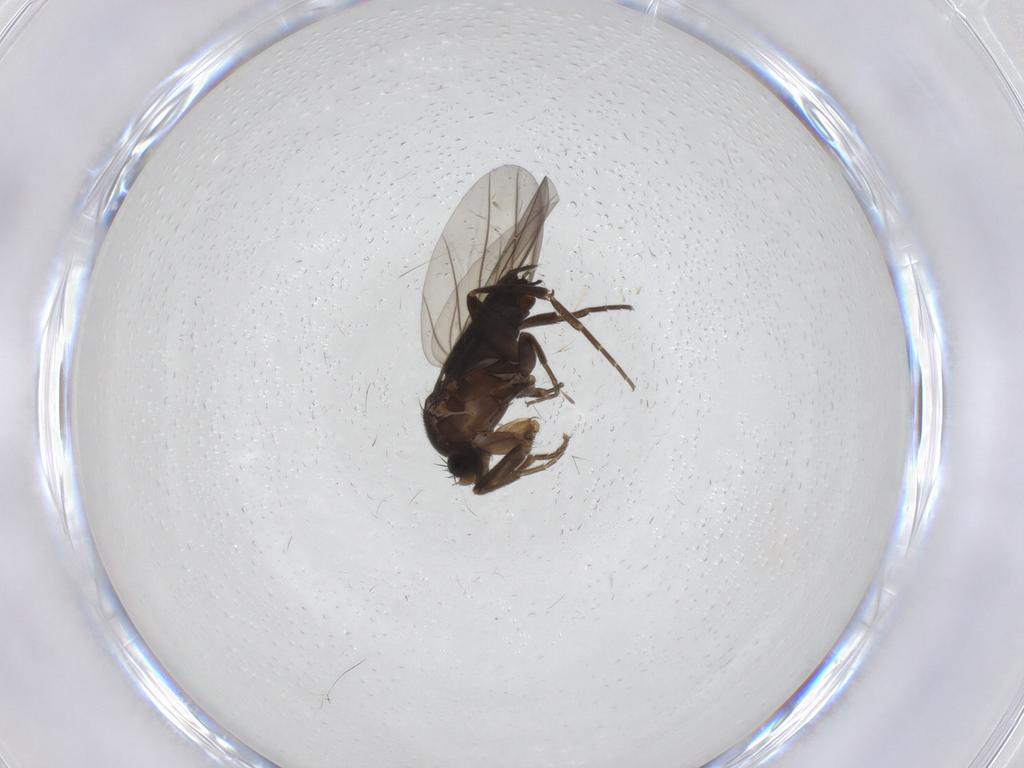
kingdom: Animalia
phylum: Arthropoda
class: Insecta
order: Diptera
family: Chironomidae
